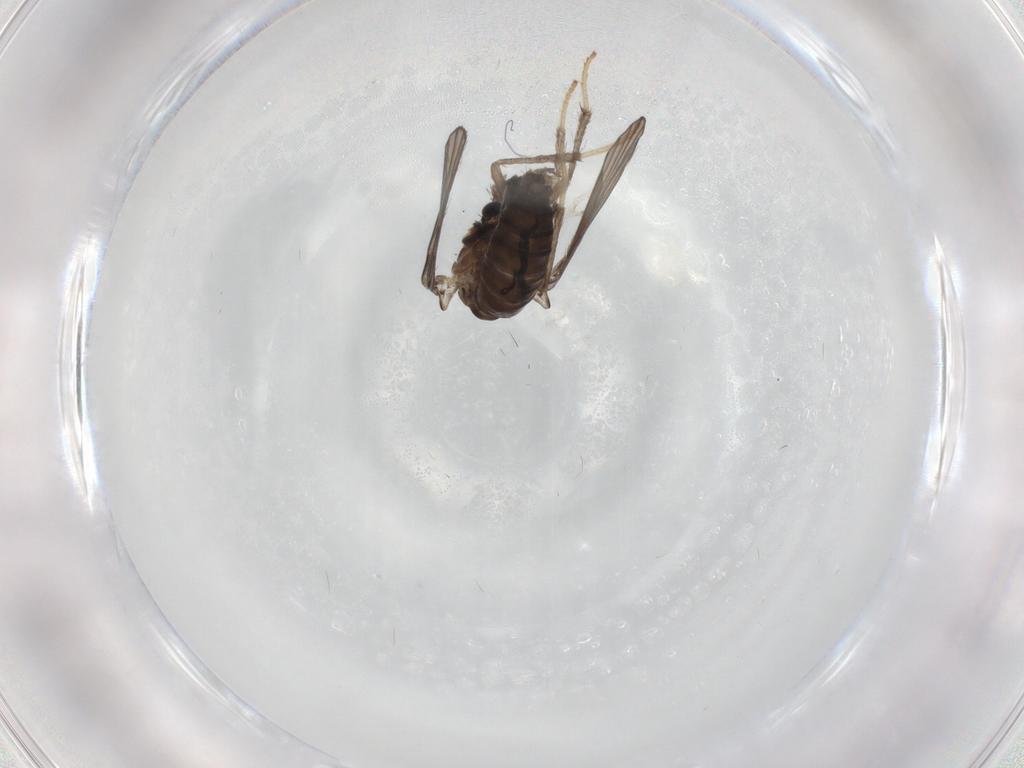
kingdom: Animalia
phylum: Arthropoda
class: Insecta
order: Diptera
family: Psychodidae
